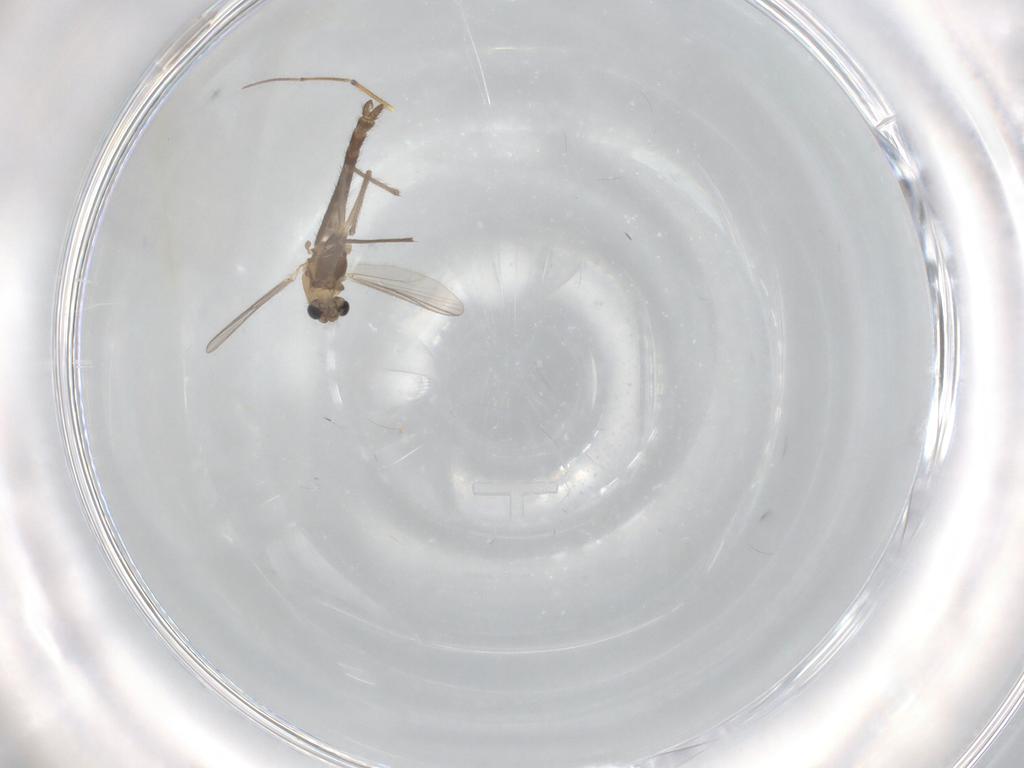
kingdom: Animalia
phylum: Arthropoda
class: Insecta
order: Diptera
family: Chironomidae
